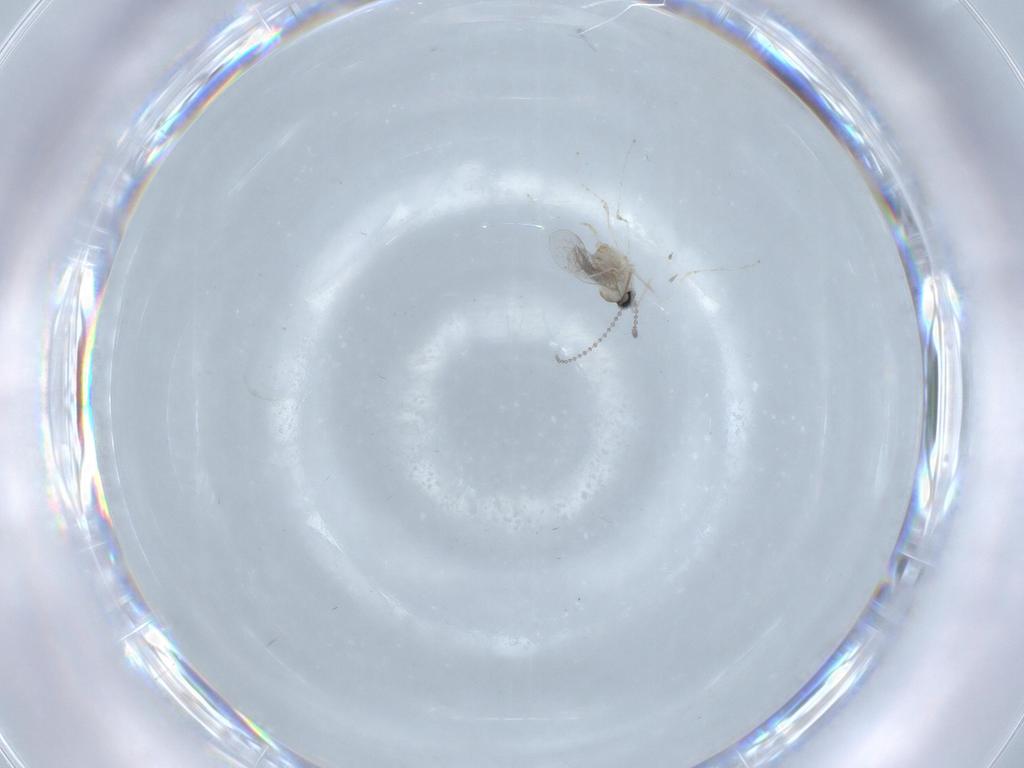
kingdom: Animalia
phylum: Arthropoda
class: Insecta
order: Diptera
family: Cecidomyiidae
